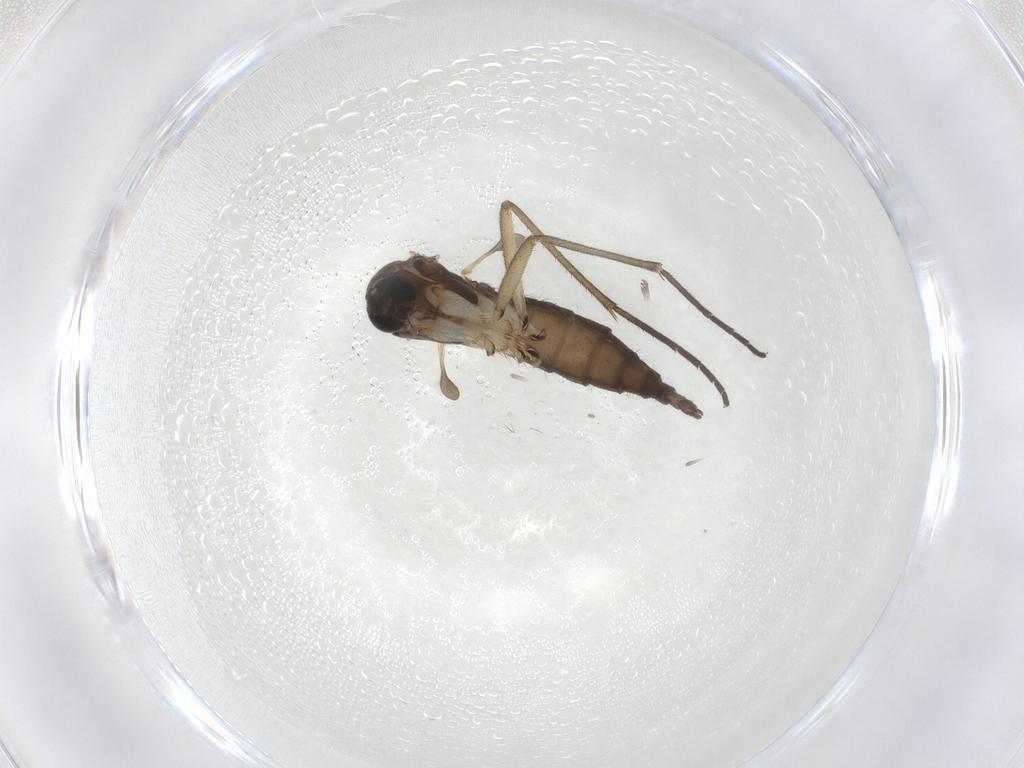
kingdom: Animalia
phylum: Arthropoda
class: Insecta
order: Diptera
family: Sciaridae
